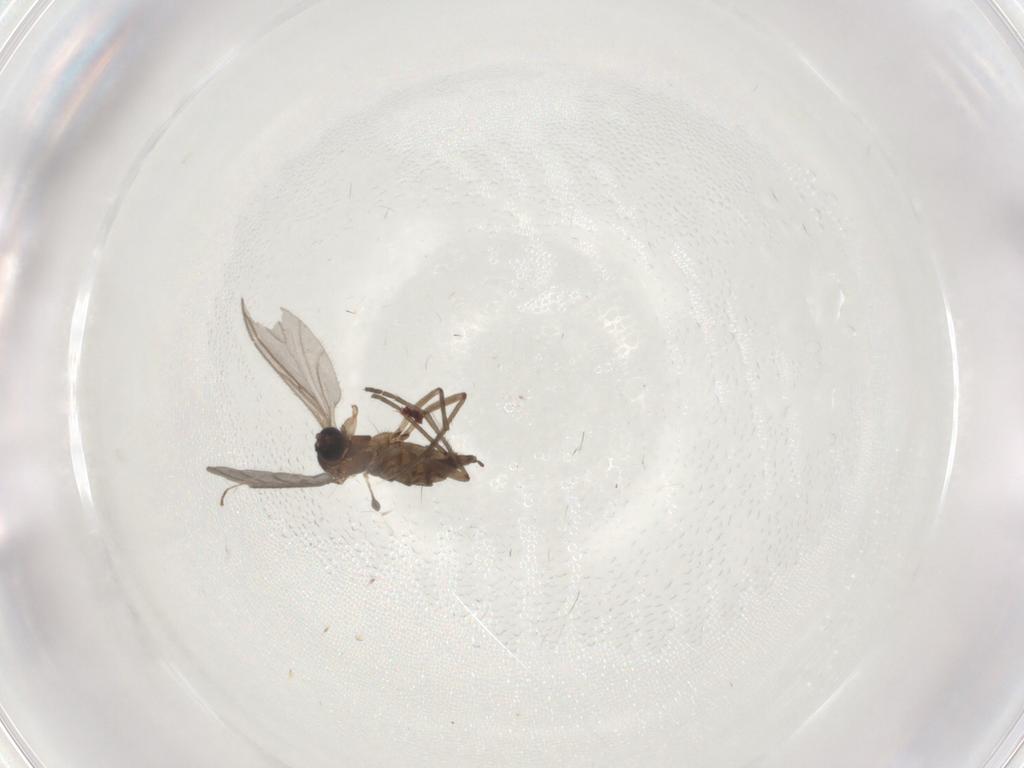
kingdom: Animalia
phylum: Arthropoda
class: Insecta
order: Diptera
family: Sciaridae
